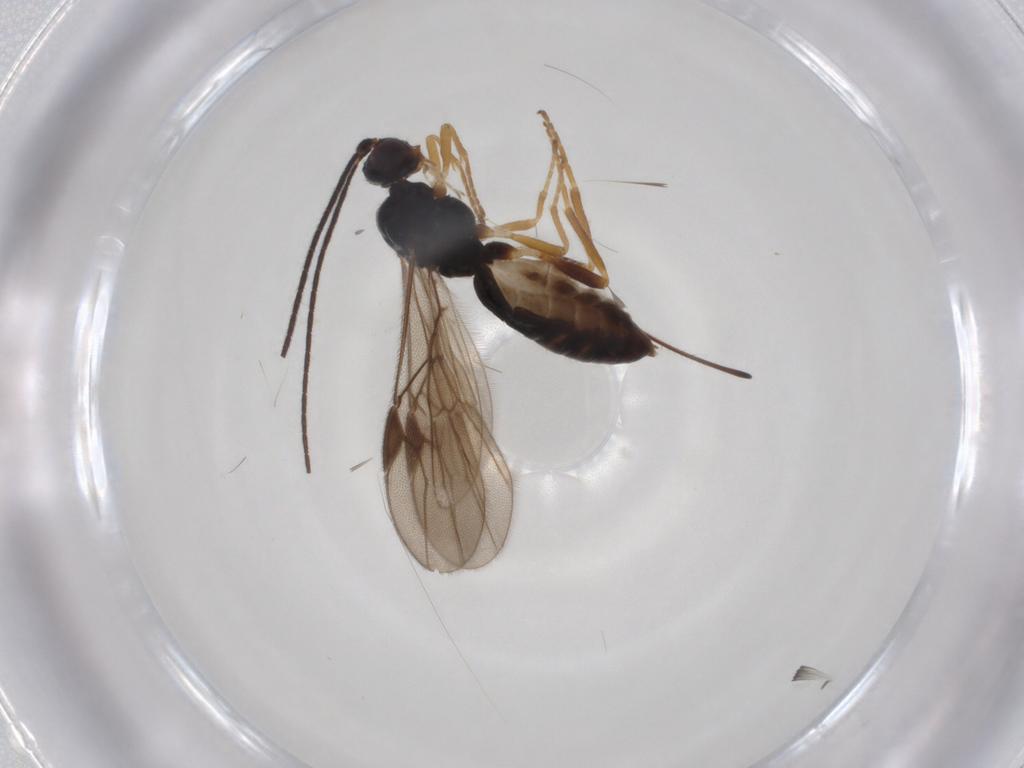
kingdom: Animalia
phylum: Arthropoda
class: Insecta
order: Hymenoptera
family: Braconidae
